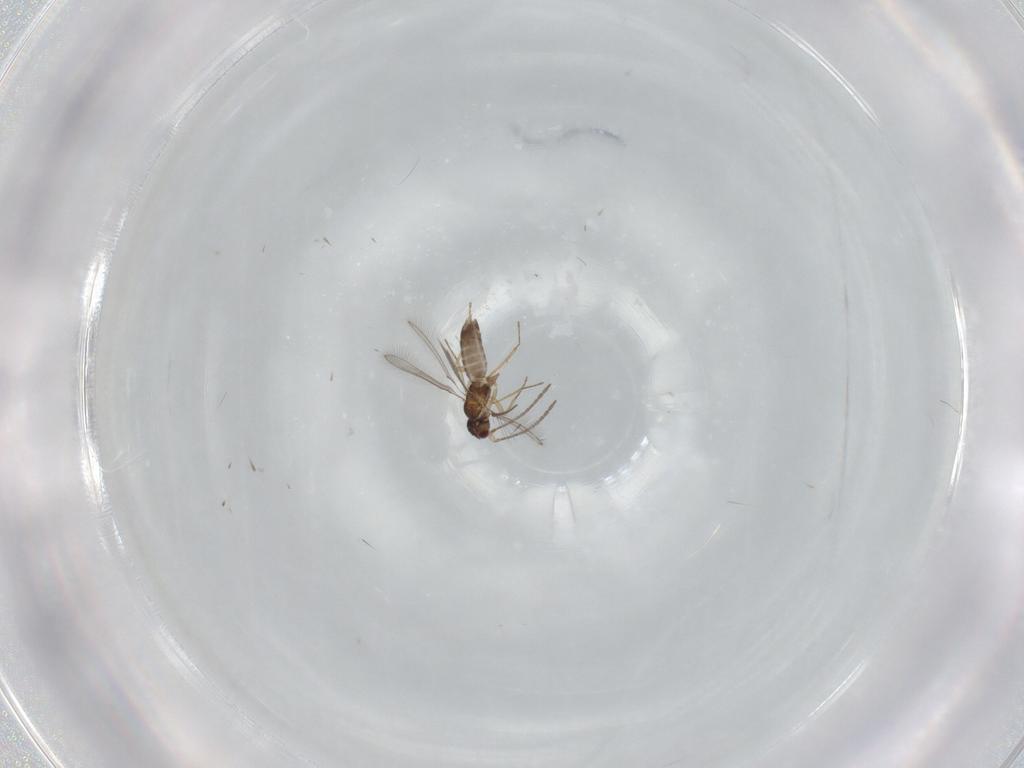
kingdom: Animalia
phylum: Arthropoda
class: Insecta
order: Hymenoptera
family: Mymaridae
